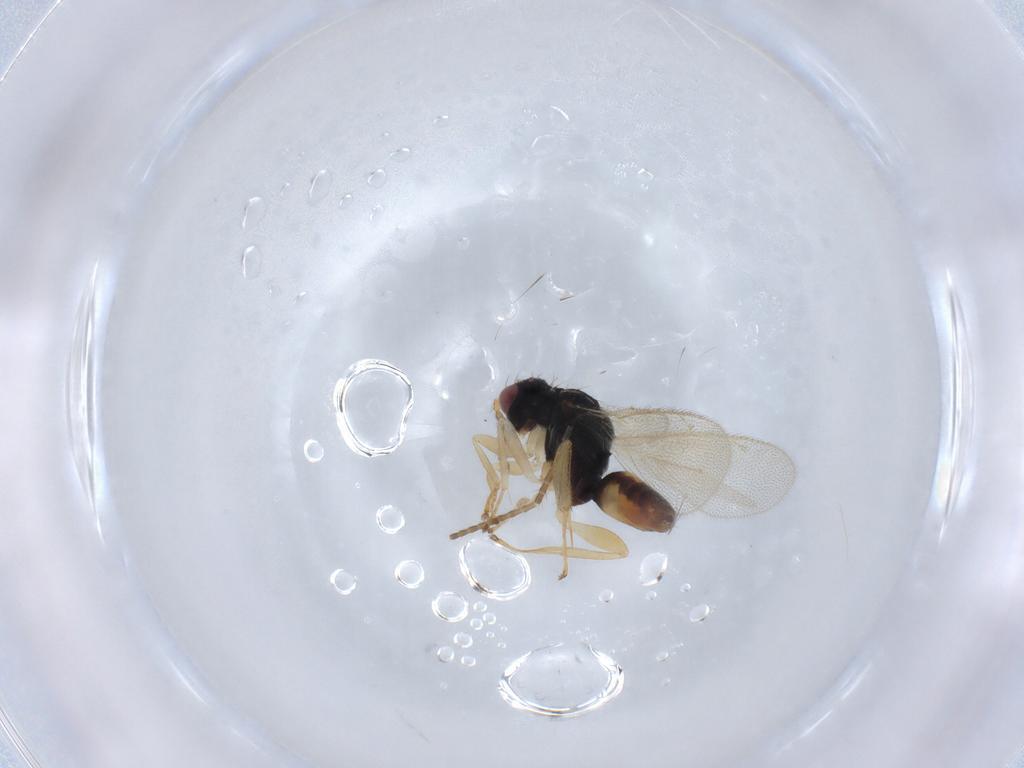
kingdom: Animalia
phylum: Arthropoda
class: Insecta
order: Hymenoptera
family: Eulophidae
